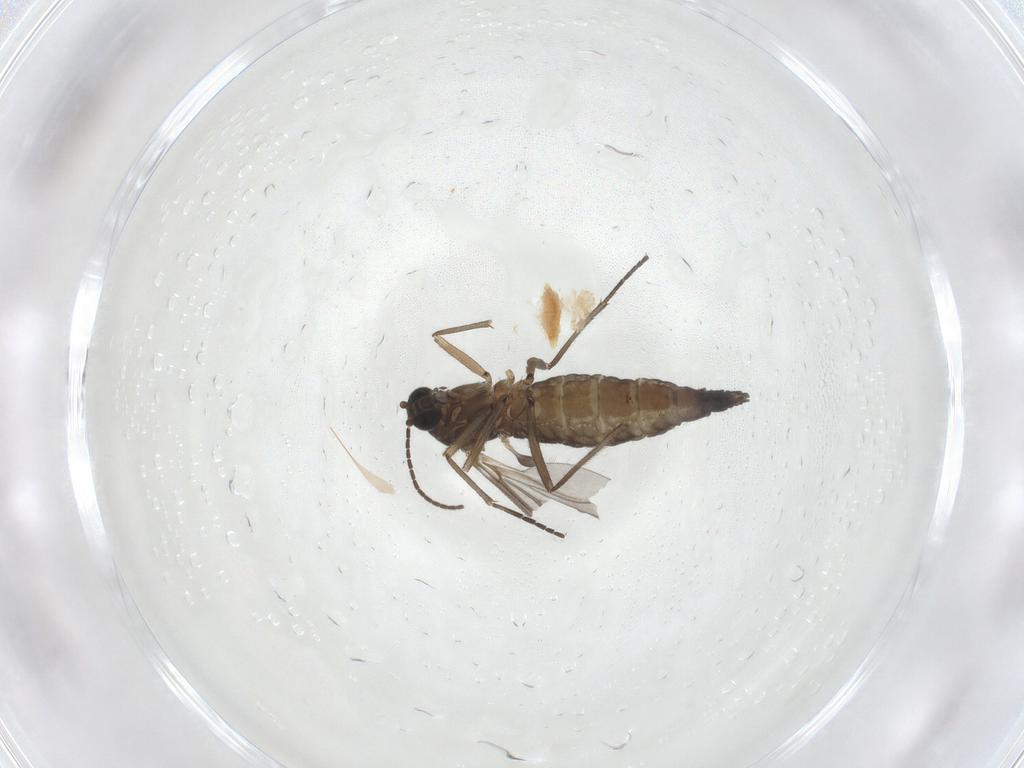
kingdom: Animalia
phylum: Arthropoda
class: Insecta
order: Diptera
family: Sciaridae
